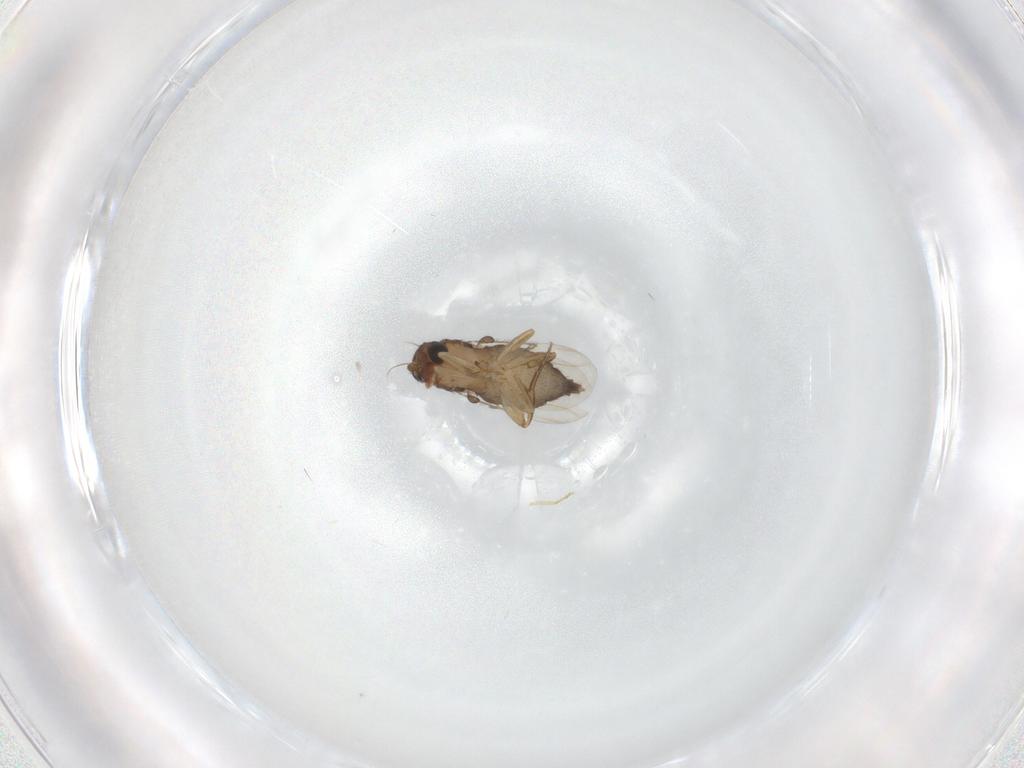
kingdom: Animalia
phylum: Arthropoda
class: Insecta
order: Diptera
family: Cecidomyiidae
